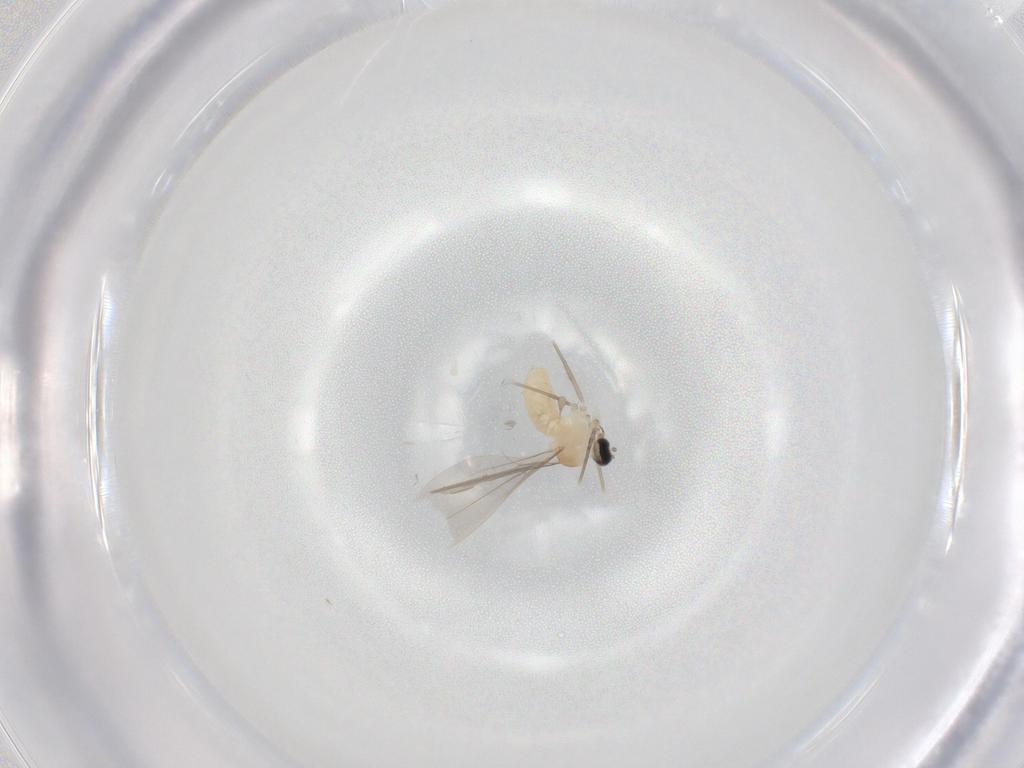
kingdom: Animalia
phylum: Arthropoda
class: Insecta
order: Diptera
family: Cecidomyiidae
